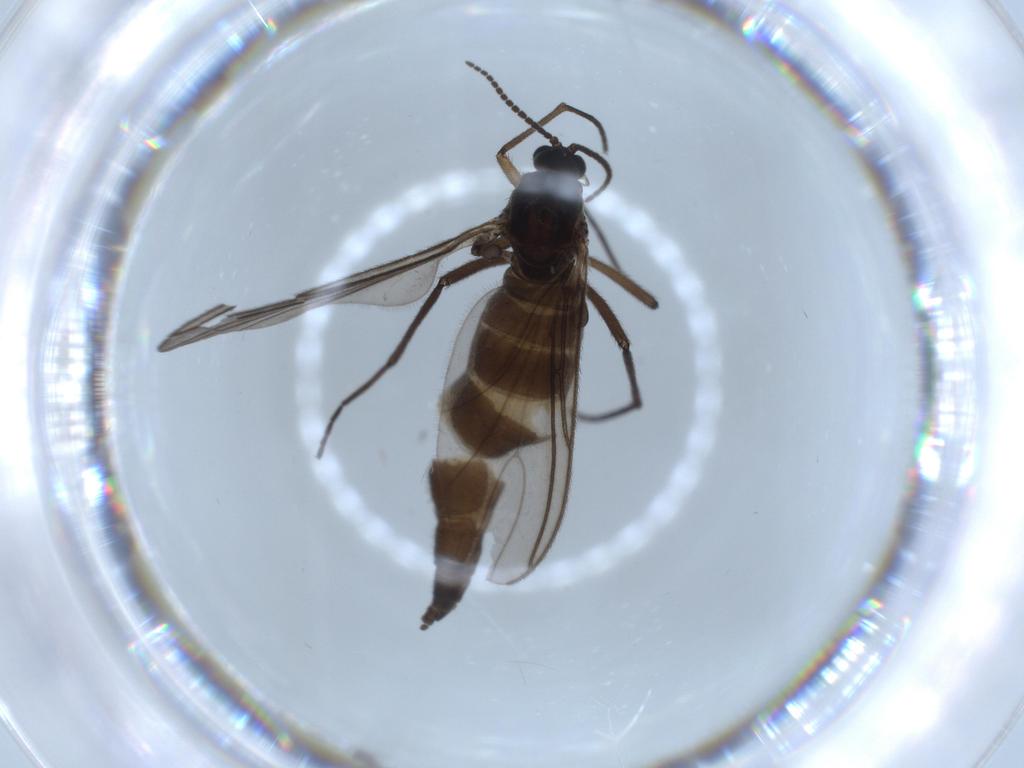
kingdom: Animalia
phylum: Arthropoda
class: Insecta
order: Diptera
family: Sciaridae
